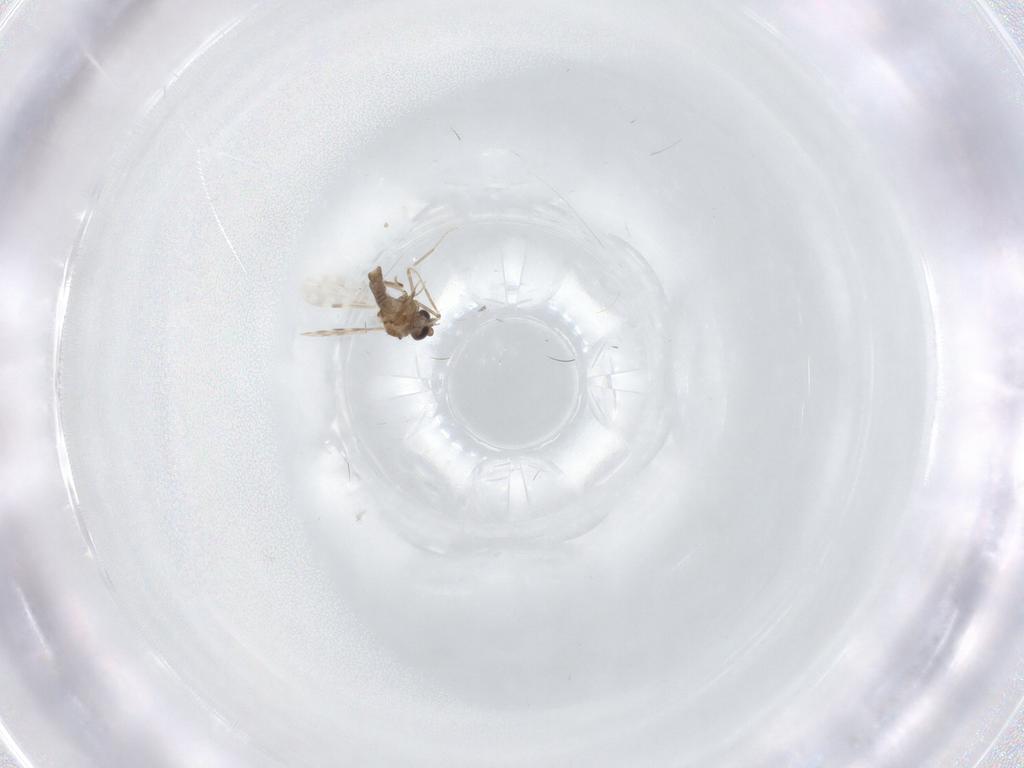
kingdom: Animalia
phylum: Arthropoda
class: Insecta
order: Diptera
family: Cecidomyiidae
